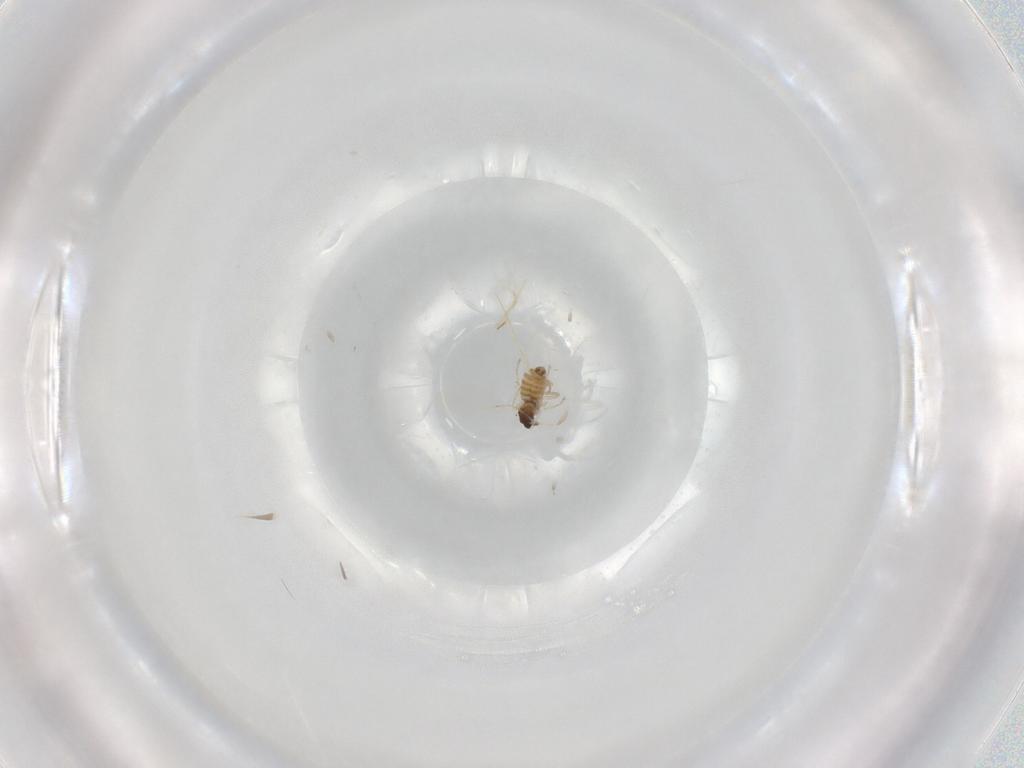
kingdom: Animalia
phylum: Arthropoda
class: Insecta
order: Diptera
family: Cecidomyiidae
